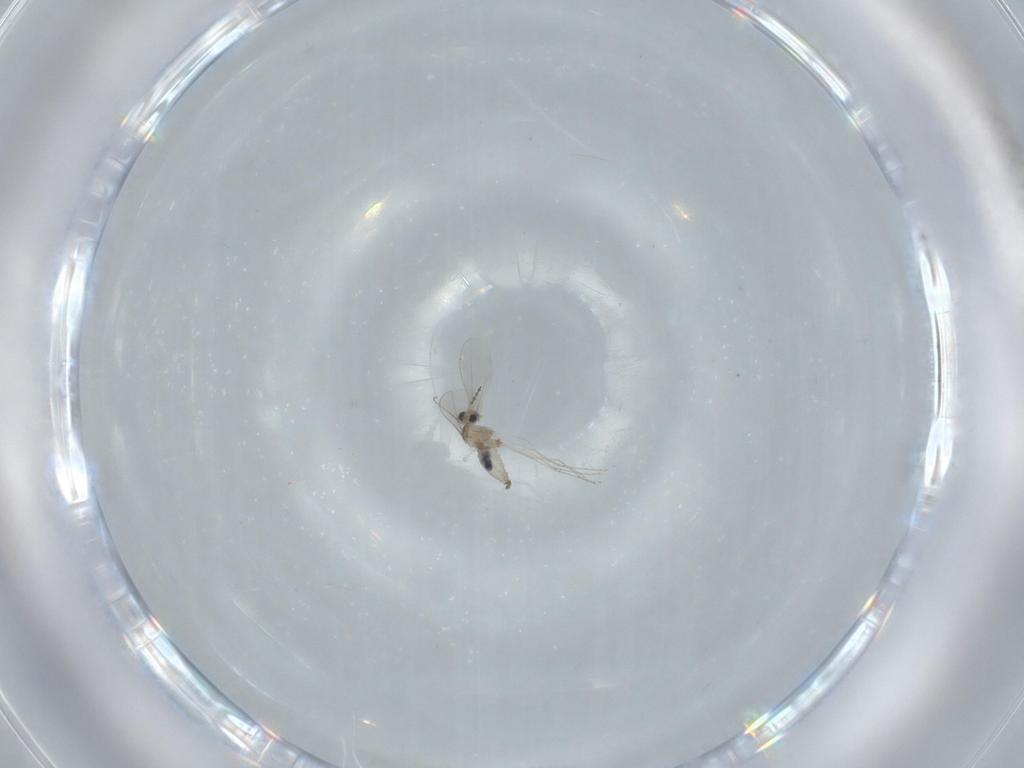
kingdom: Animalia
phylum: Arthropoda
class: Insecta
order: Diptera
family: Cecidomyiidae
